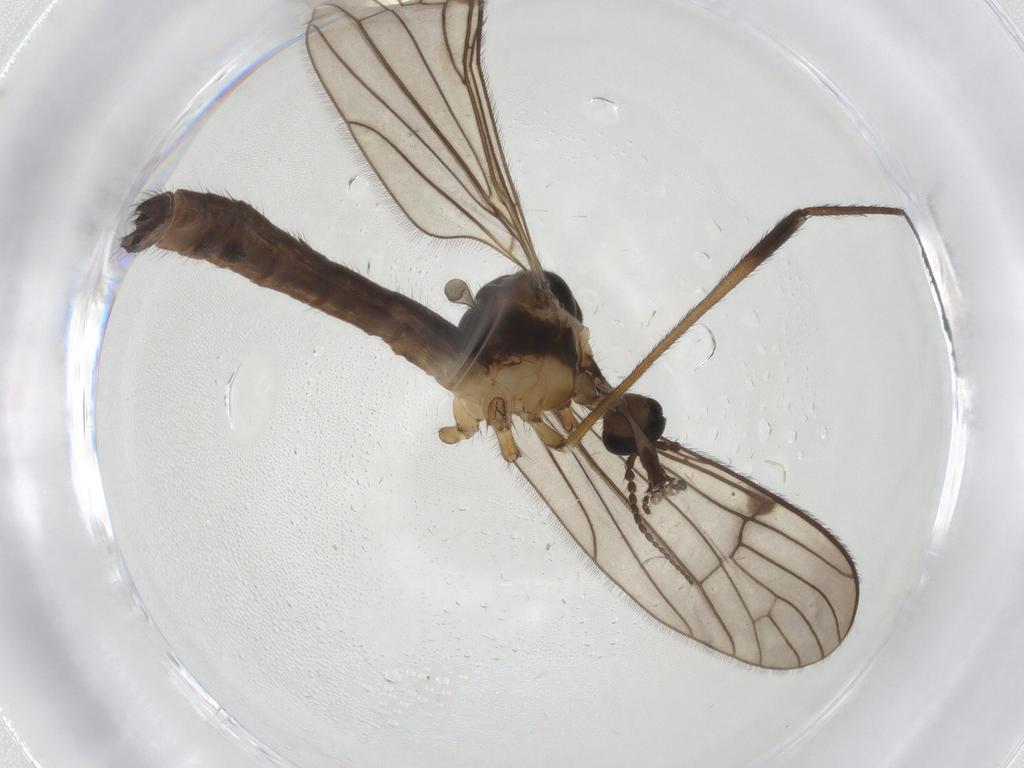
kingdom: Animalia
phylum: Arthropoda
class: Insecta
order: Diptera
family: Limoniidae
